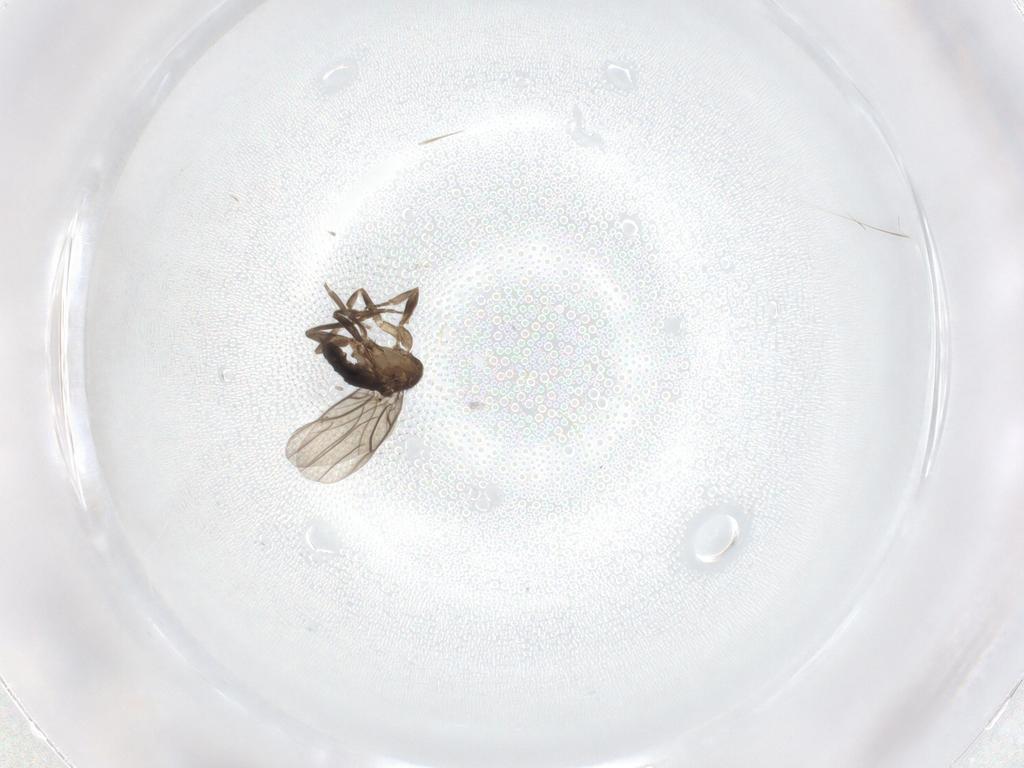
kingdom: Animalia
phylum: Arthropoda
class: Insecta
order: Diptera
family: Phoridae
